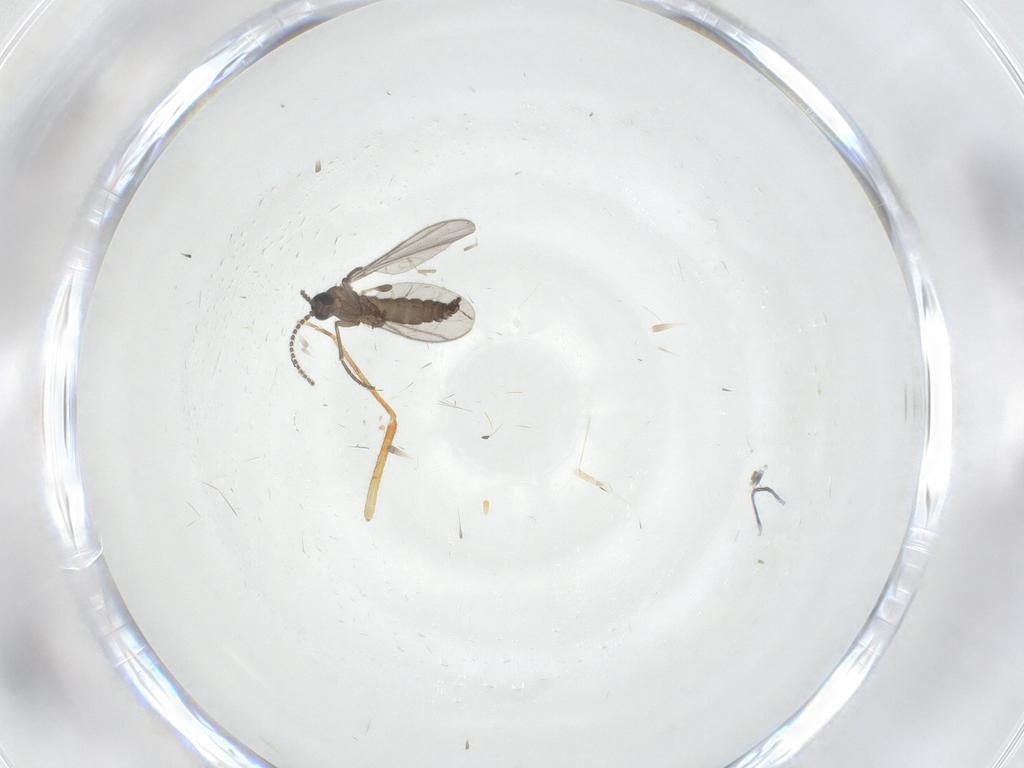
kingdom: Animalia
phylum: Arthropoda
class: Insecta
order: Diptera
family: Sciaridae
